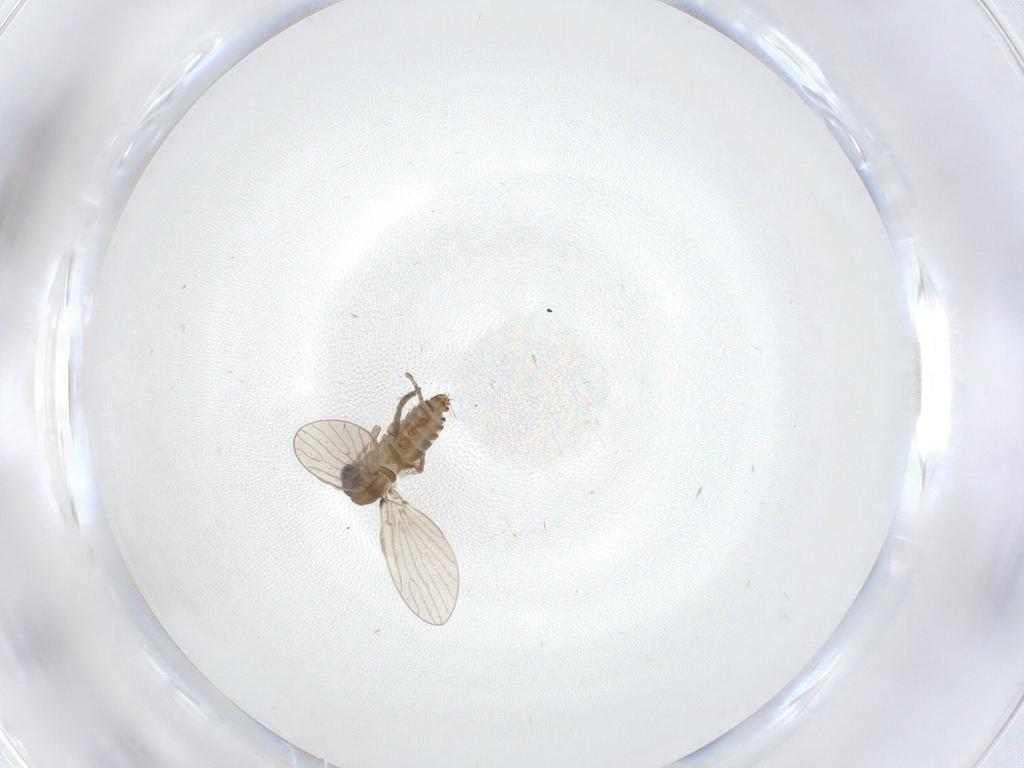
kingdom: Animalia
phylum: Arthropoda
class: Insecta
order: Diptera
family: Psychodidae
